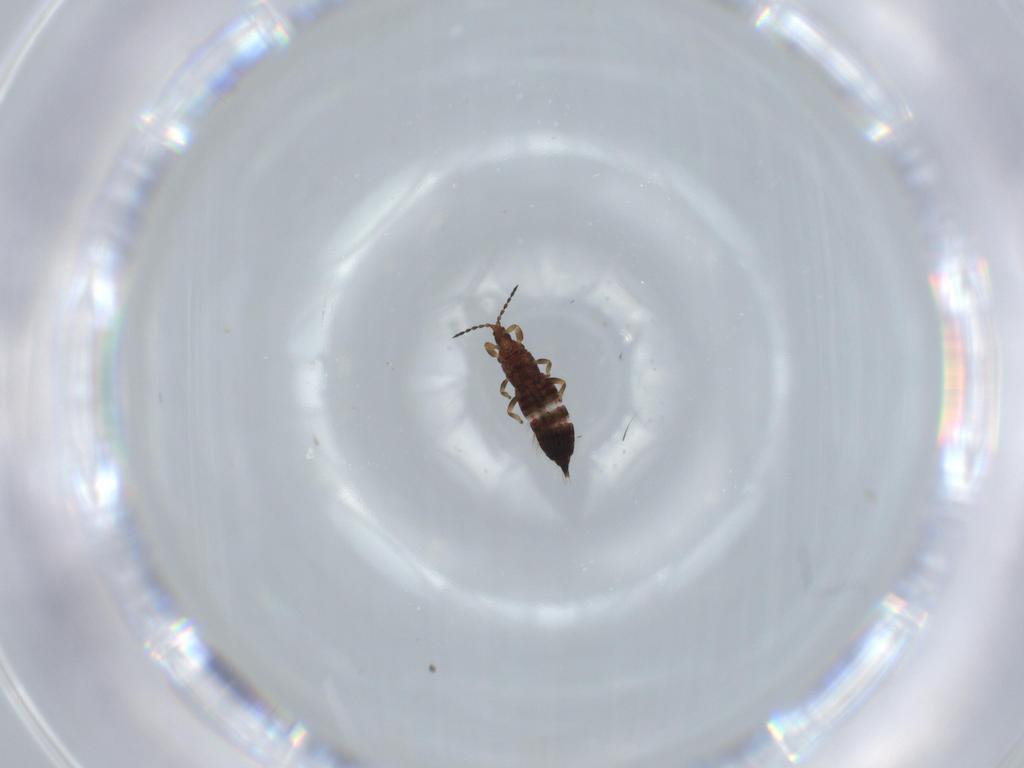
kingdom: Animalia
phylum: Arthropoda
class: Insecta
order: Thysanoptera
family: Phlaeothripidae
